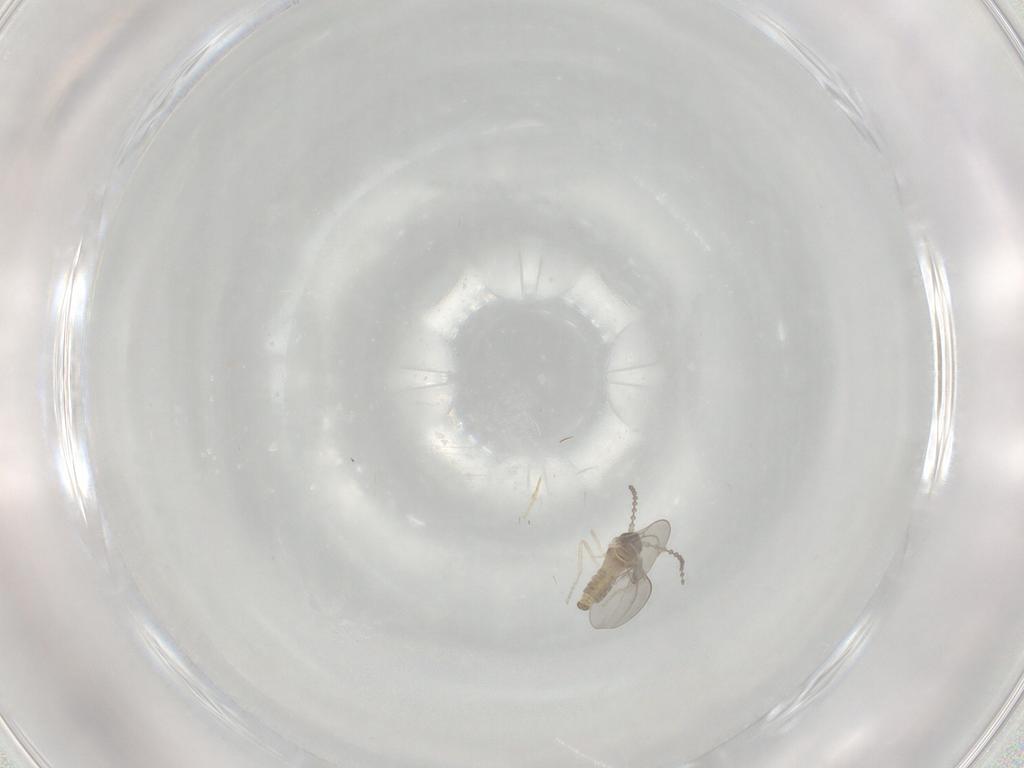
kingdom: Animalia
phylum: Arthropoda
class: Insecta
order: Diptera
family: Cecidomyiidae
